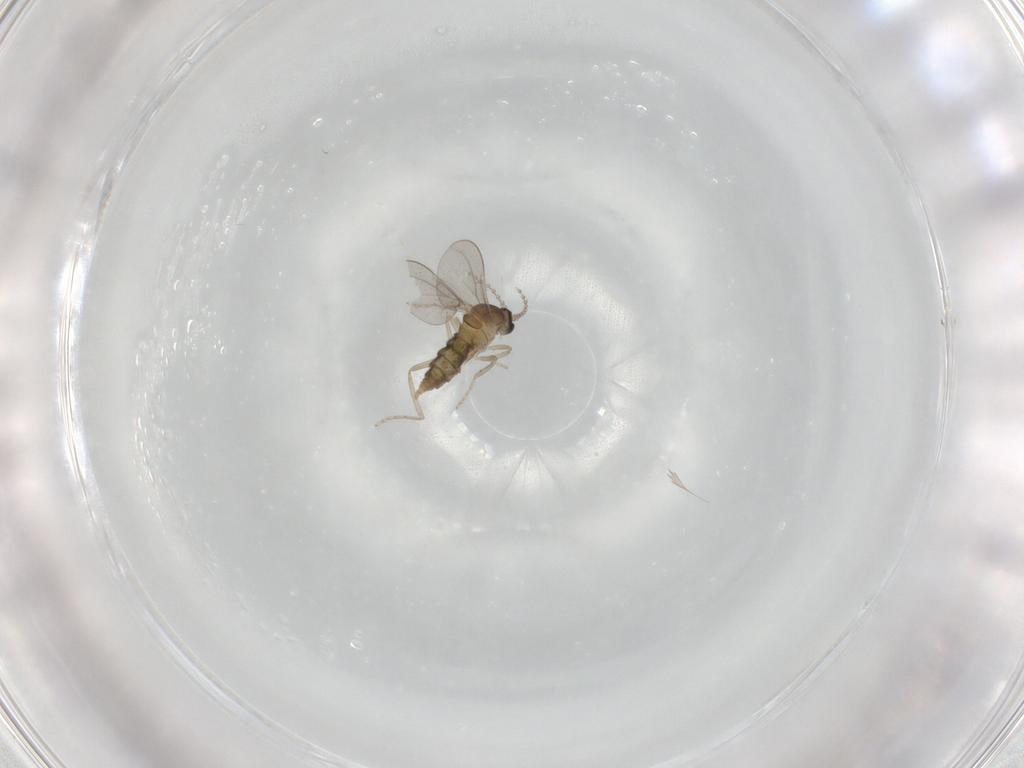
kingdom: Animalia
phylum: Arthropoda
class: Insecta
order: Diptera
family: Cecidomyiidae
